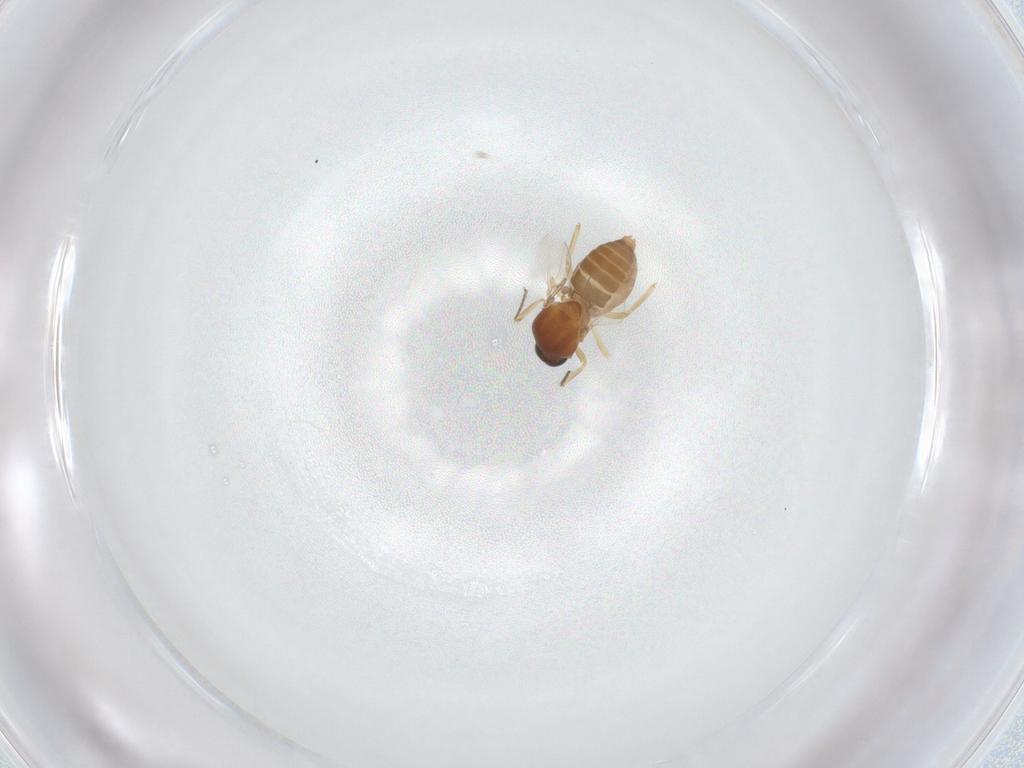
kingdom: Animalia
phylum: Arthropoda
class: Insecta
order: Diptera
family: Ceratopogonidae
